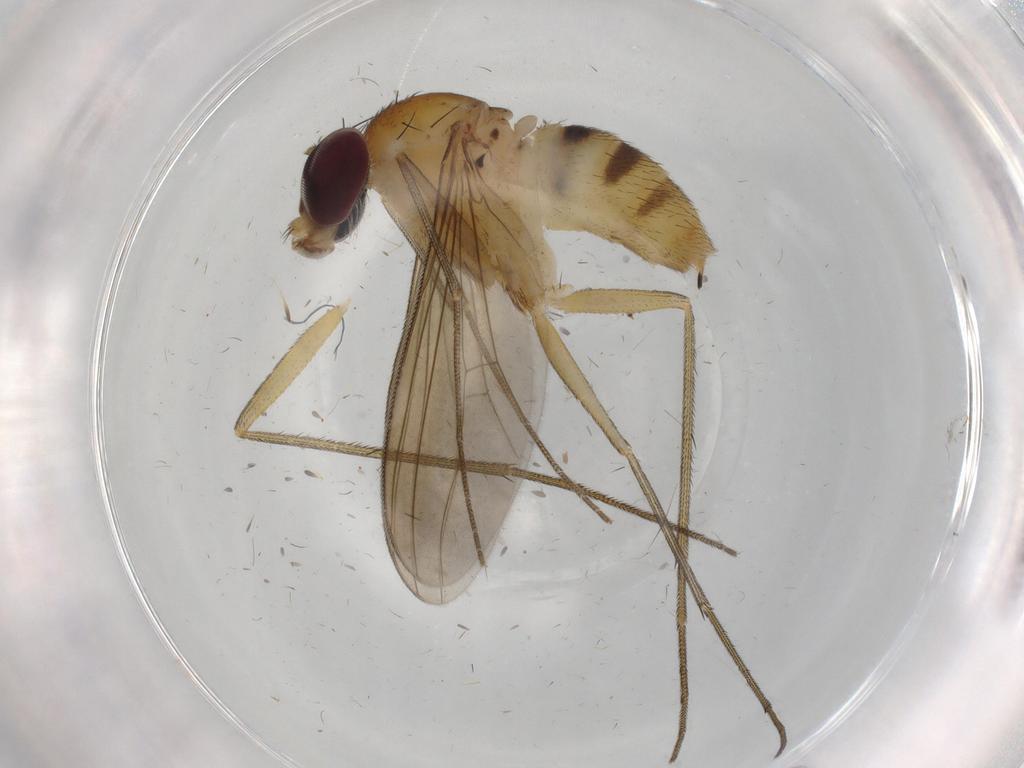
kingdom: Animalia
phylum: Arthropoda
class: Insecta
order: Diptera
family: Dolichopodidae
